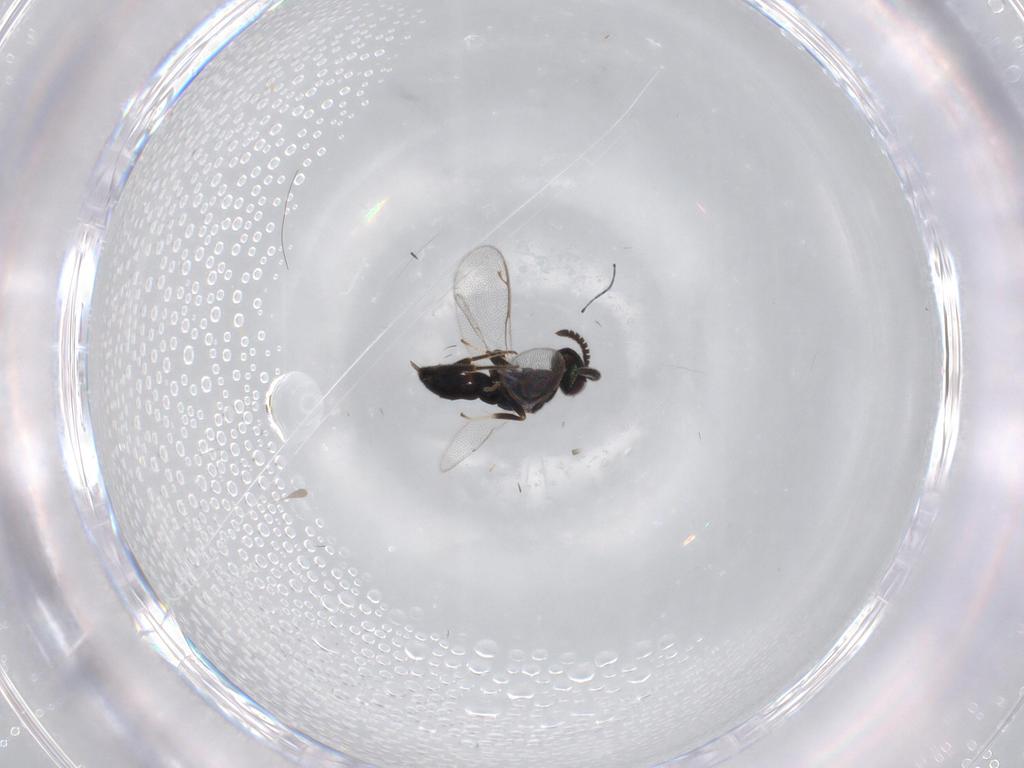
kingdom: Animalia
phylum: Arthropoda
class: Insecta
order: Hymenoptera
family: Cleonyminae
